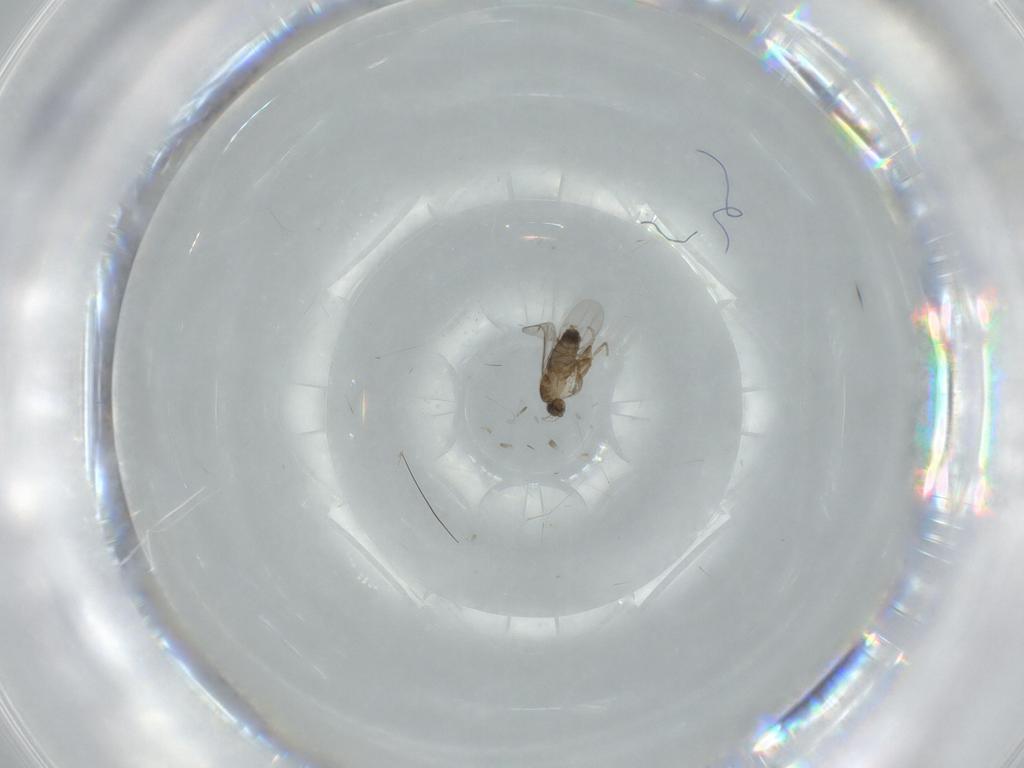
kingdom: Animalia
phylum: Arthropoda
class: Insecta
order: Diptera
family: Phoridae
